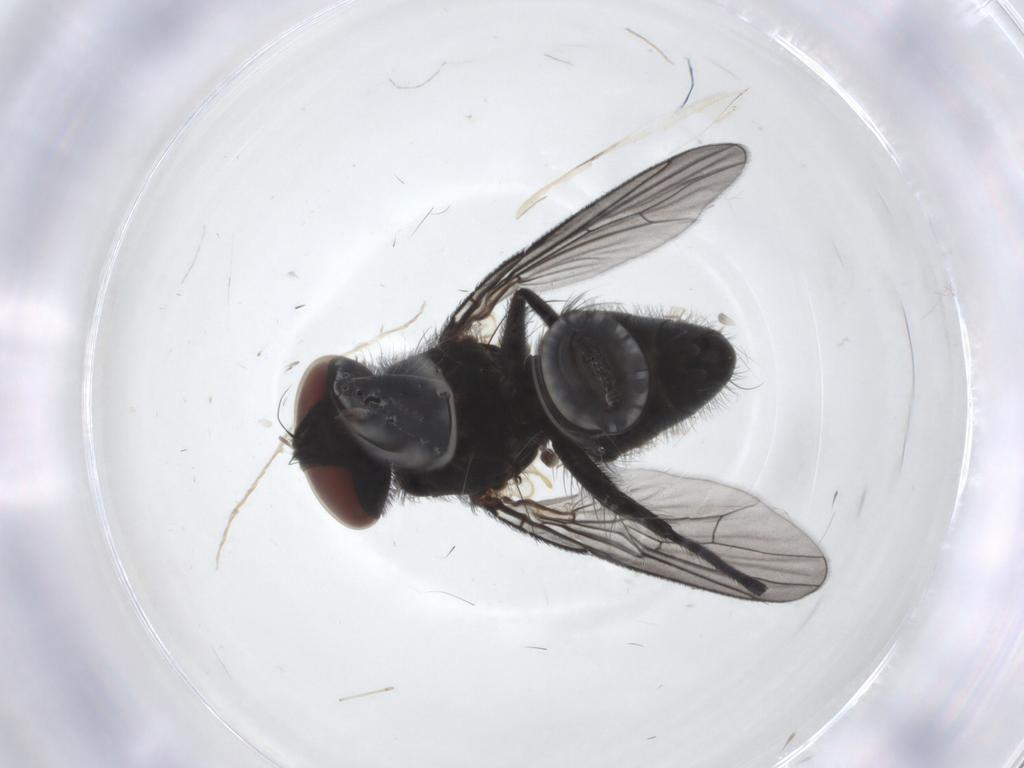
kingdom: Animalia
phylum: Arthropoda
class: Insecta
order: Diptera
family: Muscidae
